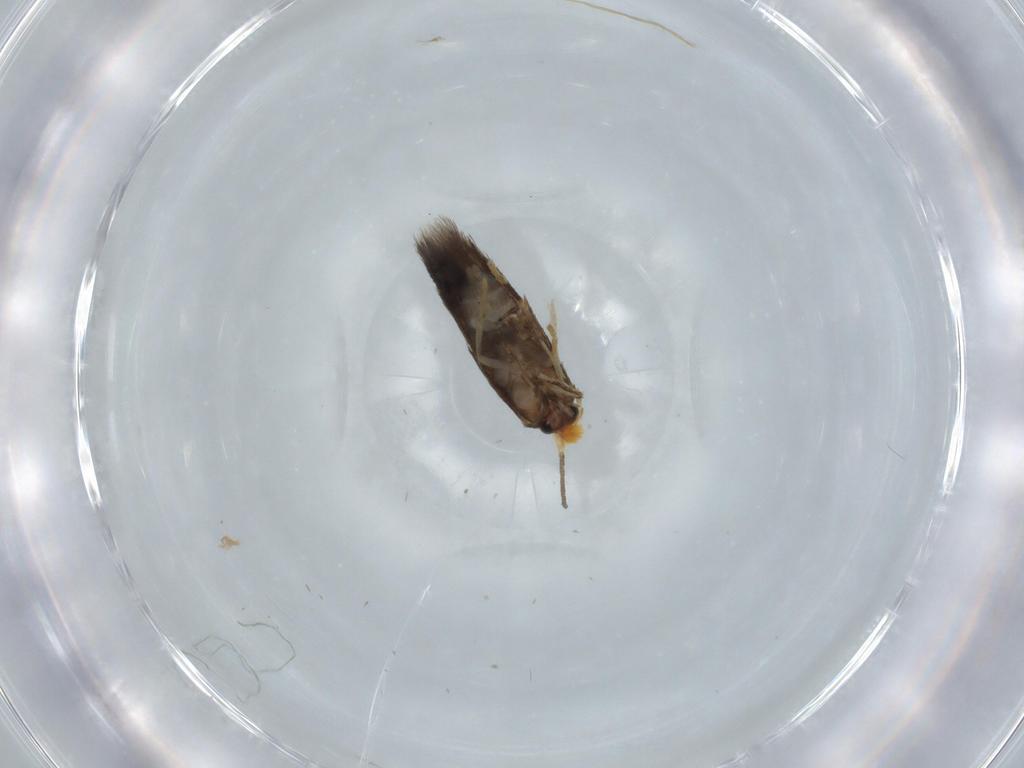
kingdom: Animalia
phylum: Arthropoda
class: Insecta
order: Lepidoptera
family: Nepticulidae
